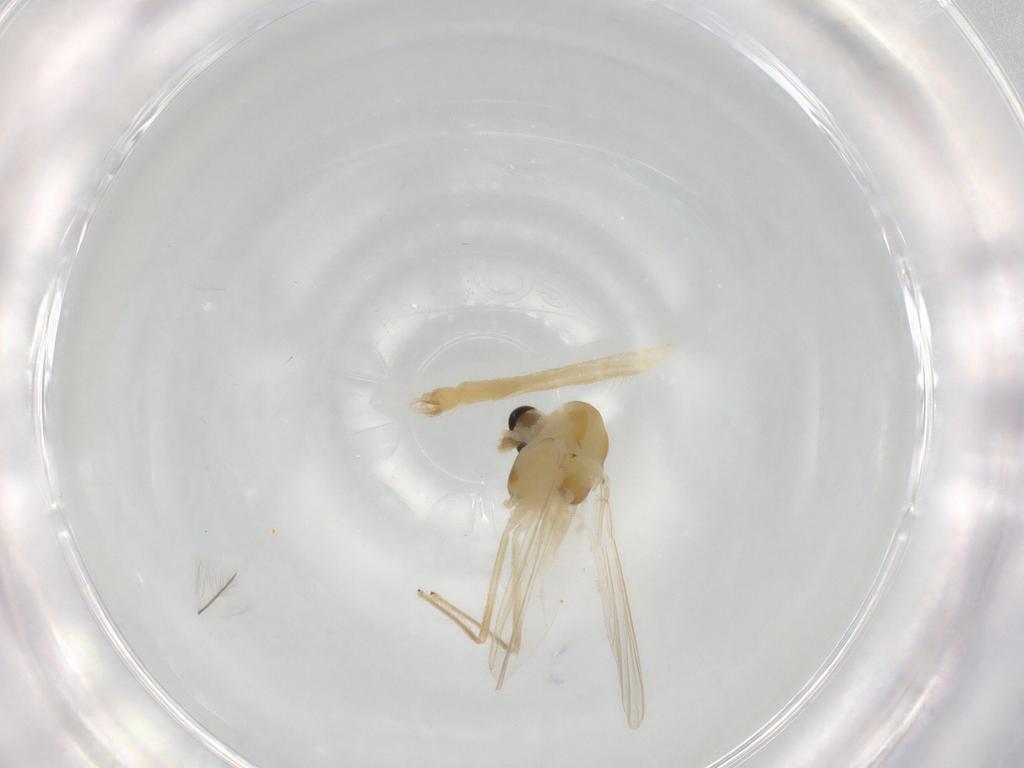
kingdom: Animalia
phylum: Arthropoda
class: Insecta
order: Diptera
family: Chironomidae
